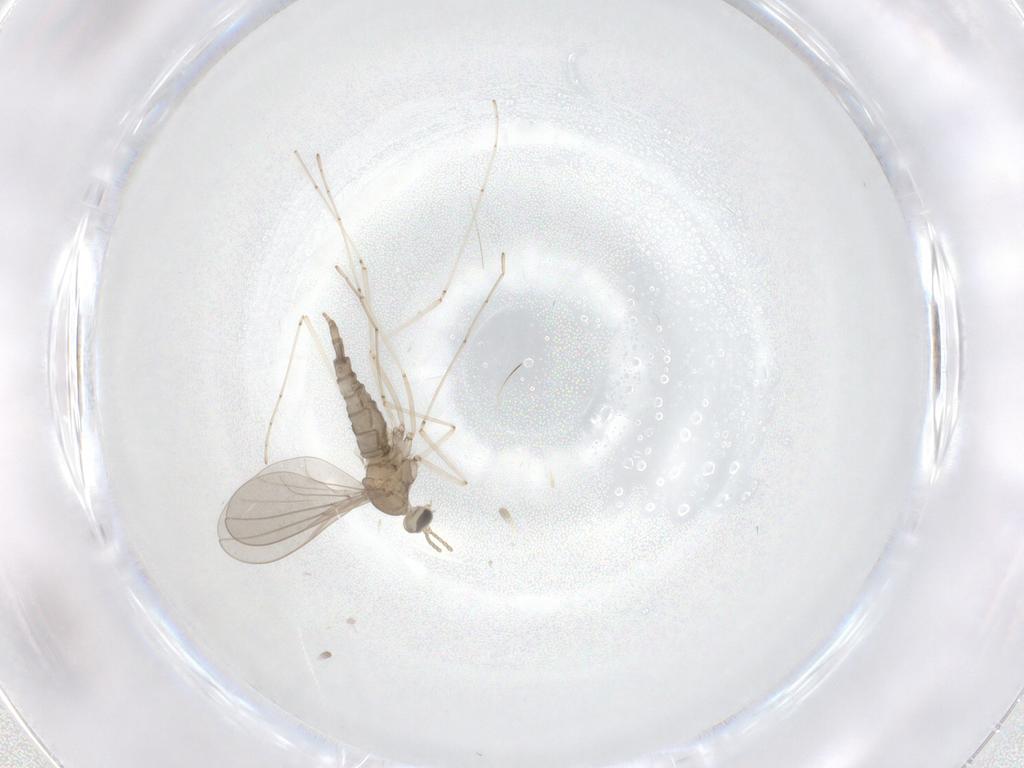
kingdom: Animalia
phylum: Arthropoda
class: Insecta
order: Diptera
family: Cecidomyiidae
